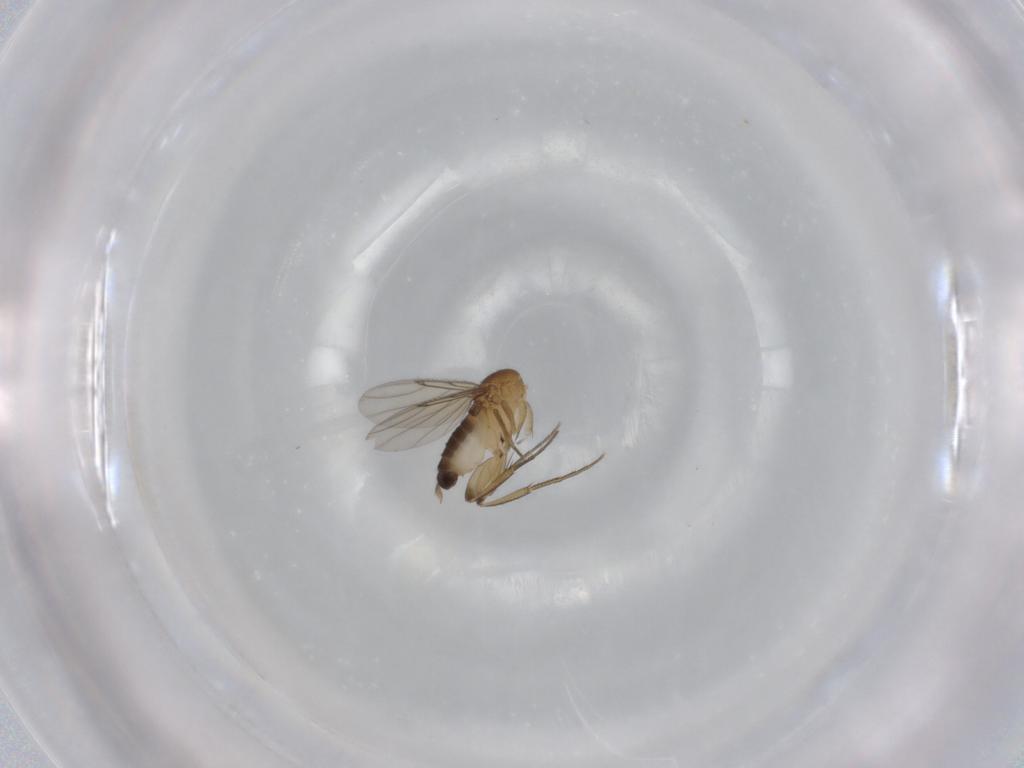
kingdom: Animalia
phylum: Arthropoda
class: Insecta
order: Diptera
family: Phoridae
